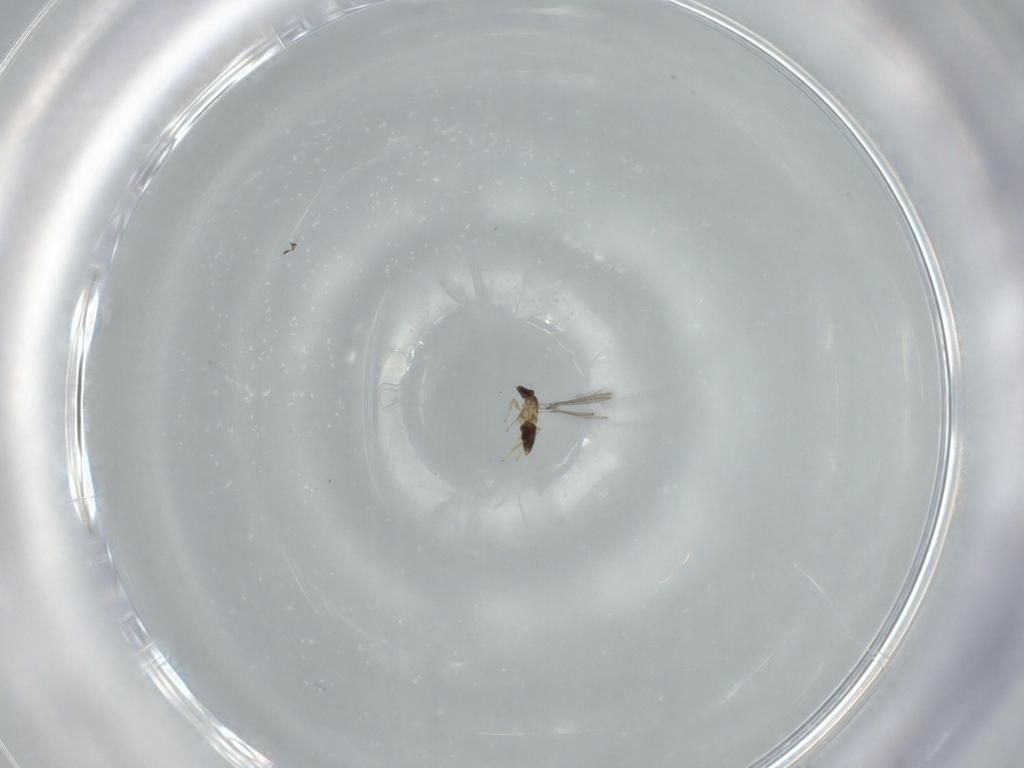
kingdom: Animalia
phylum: Arthropoda
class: Insecta
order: Hymenoptera
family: Mymaridae
